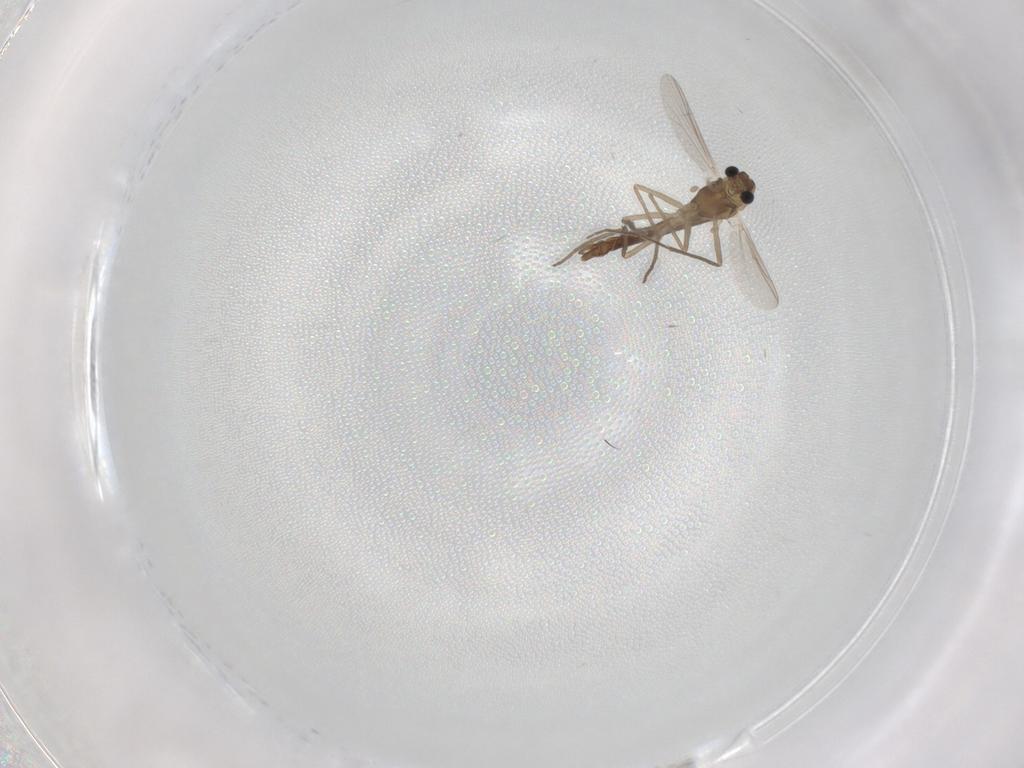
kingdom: Animalia
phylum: Arthropoda
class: Insecta
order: Diptera
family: Chironomidae
